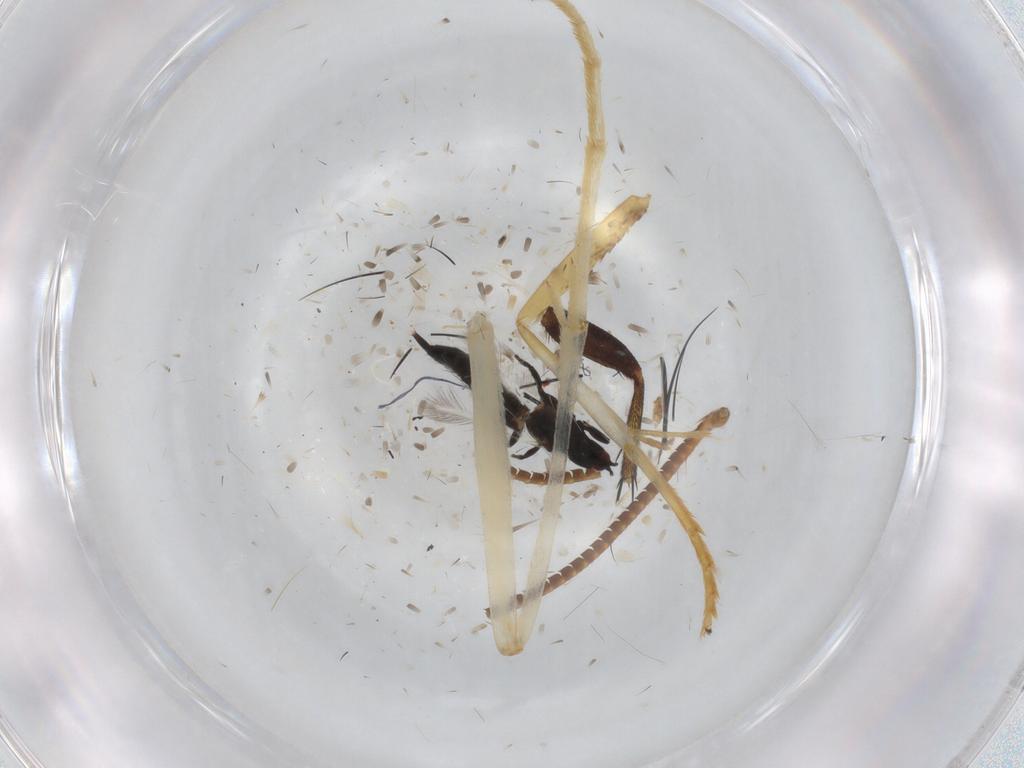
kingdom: Animalia
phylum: Arthropoda
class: Insecta
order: Thysanoptera
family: Phlaeothripidae
